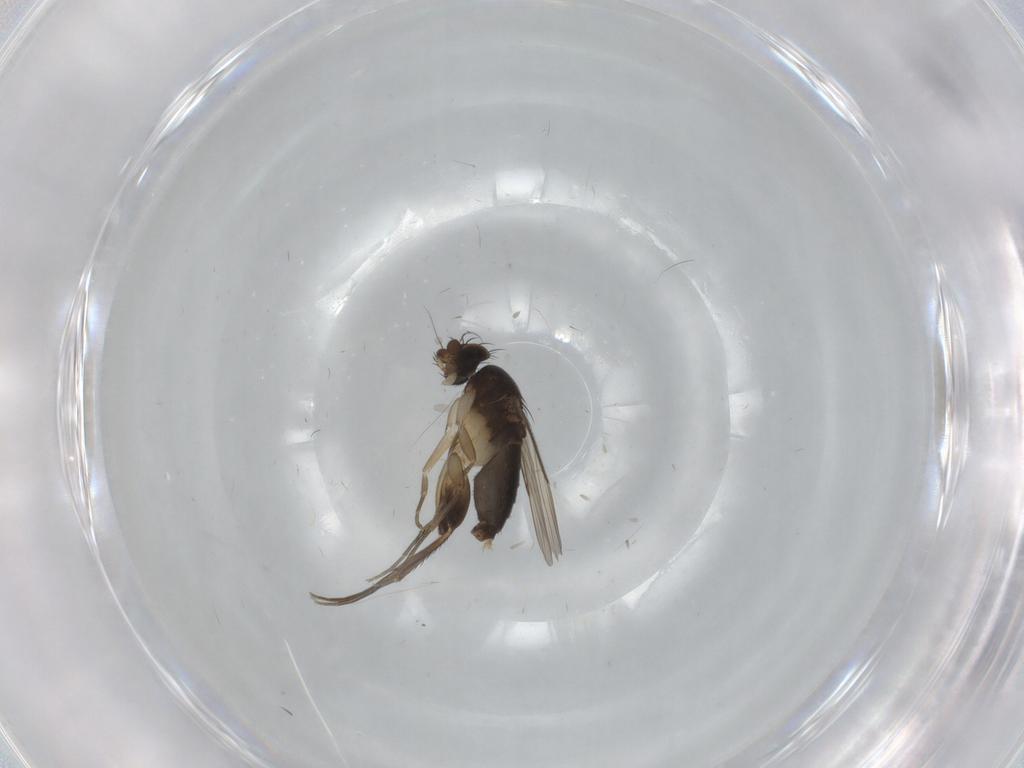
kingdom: Animalia
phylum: Arthropoda
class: Insecta
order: Diptera
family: Phoridae
